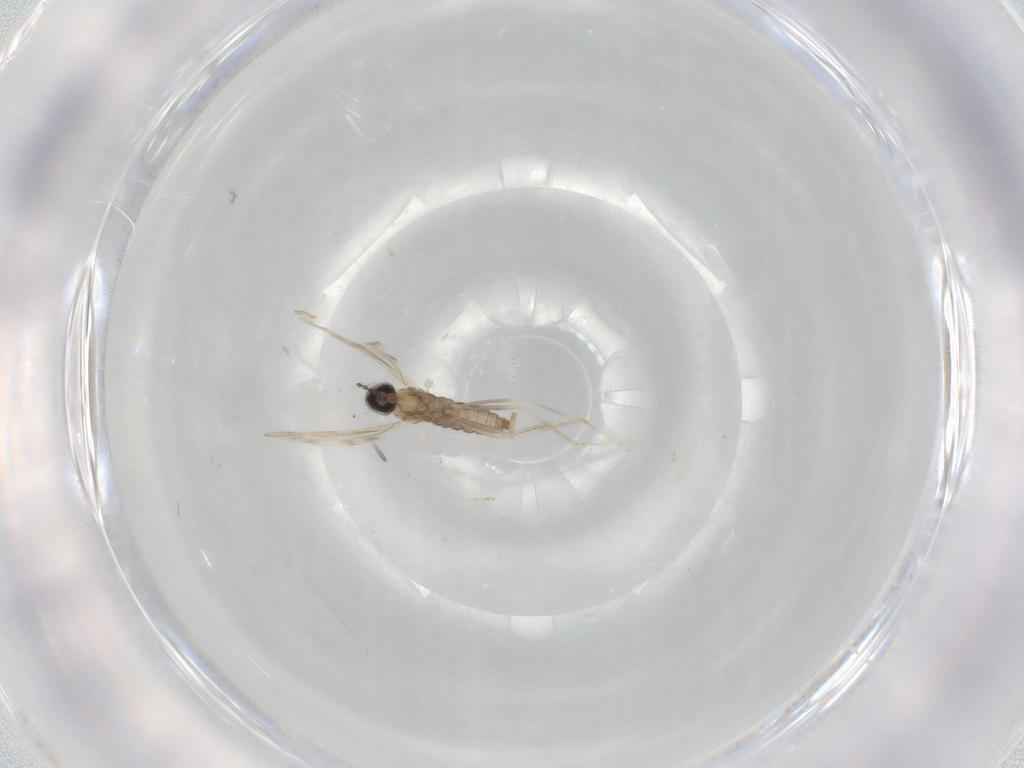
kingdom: Animalia
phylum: Arthropoda
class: Insecta
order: Diptera
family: Cecidomyiidae
